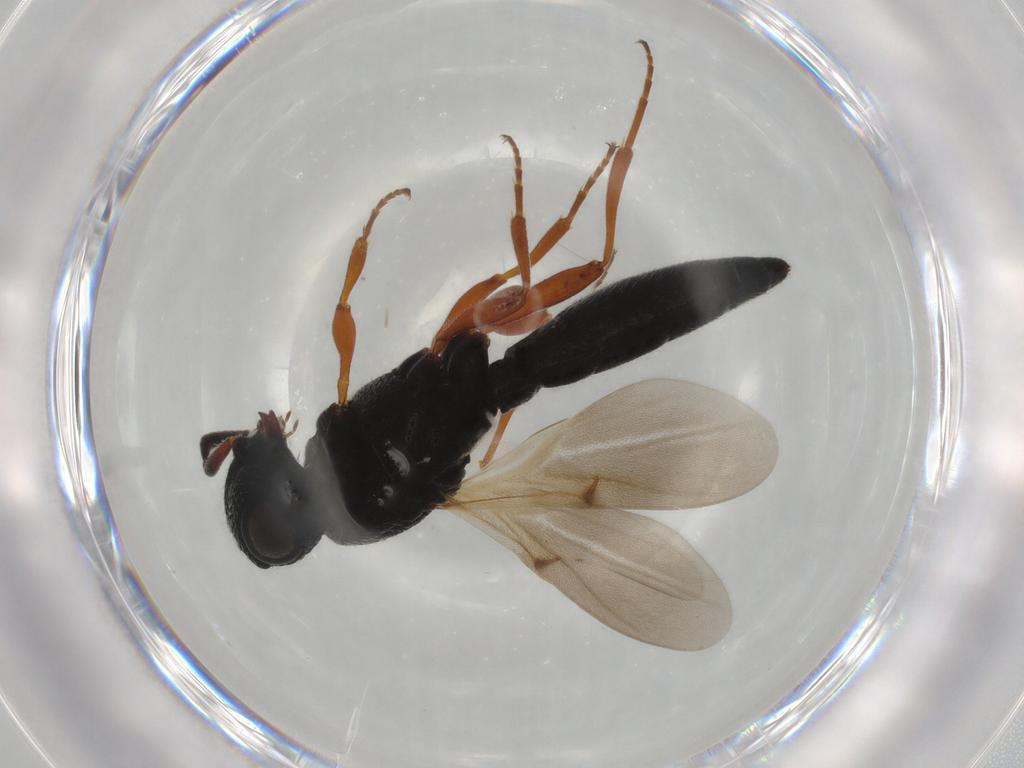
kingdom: Animalia
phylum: Arthropoda
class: Insecta
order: Hymenoptera
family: Scelionidae
